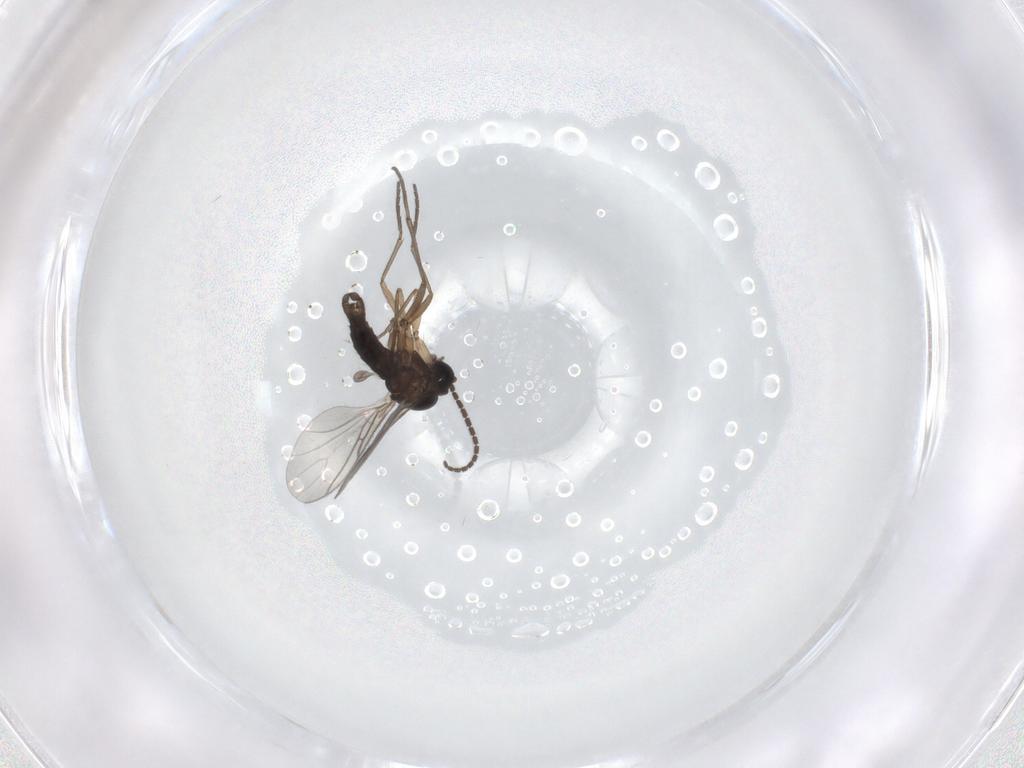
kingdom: Animalia
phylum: Arthropoda
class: Insecta
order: Diptera
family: Sciaridae
